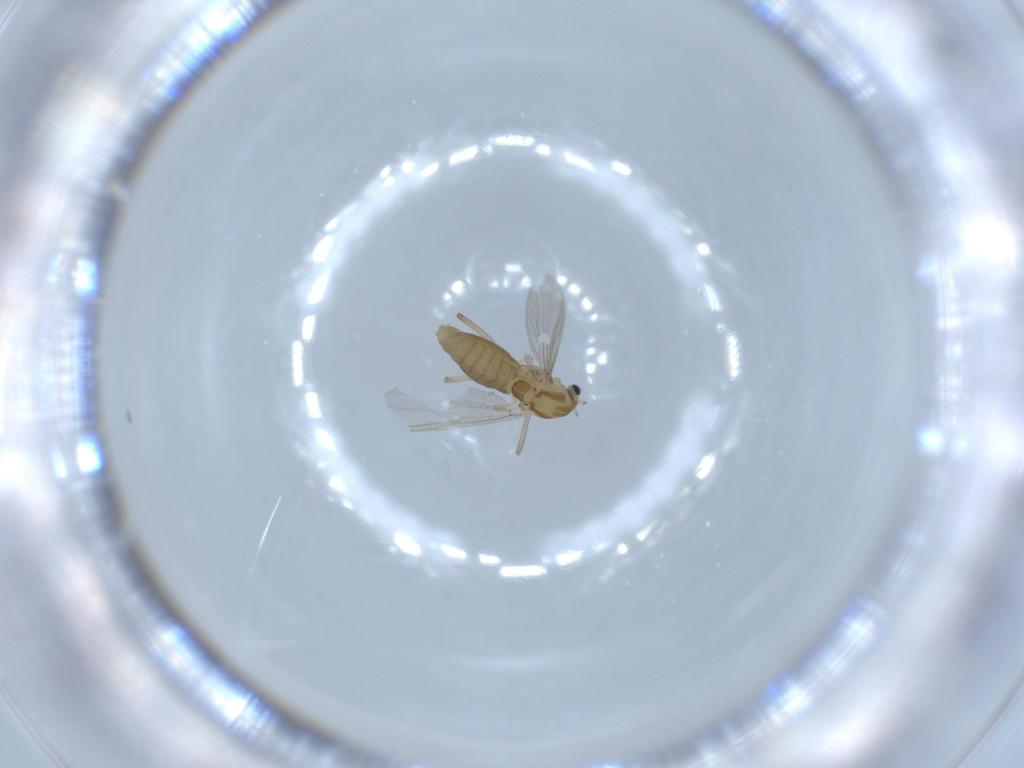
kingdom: Animalia
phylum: Arthropoda
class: Insecta
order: Diptera
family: Chironomidae
